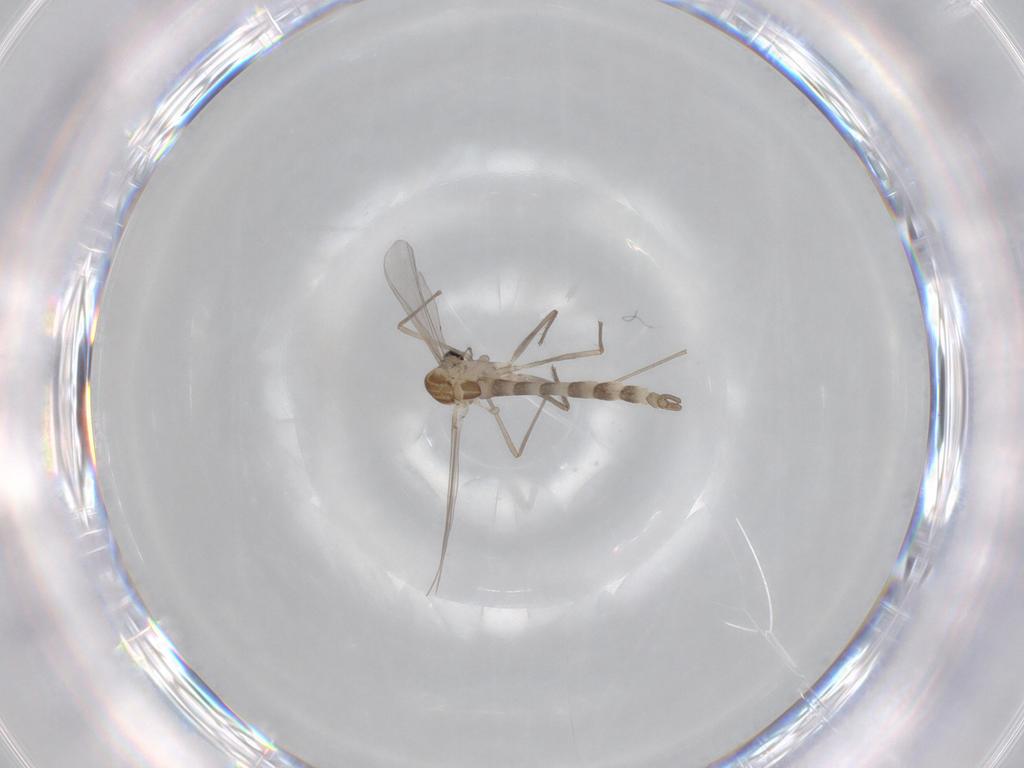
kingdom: Animalia
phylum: Arthropoda
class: Insecta
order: Diptera
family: Chironomidae
